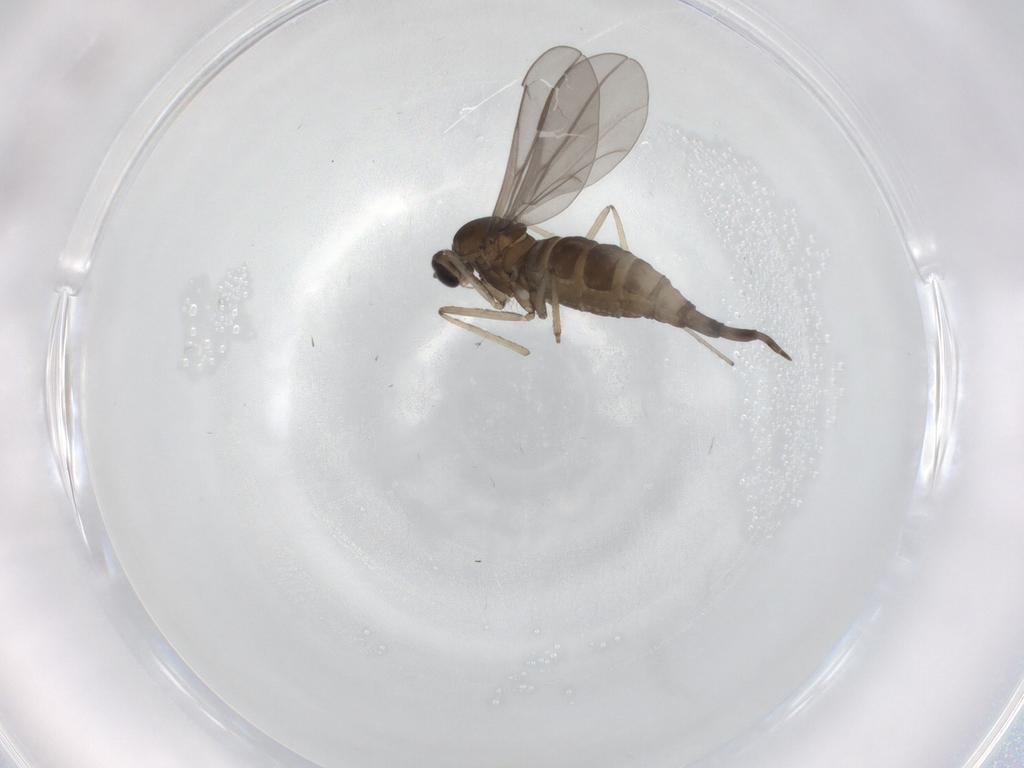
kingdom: Animalia
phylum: Arthropoda
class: Insecta
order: Diptera
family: Cecidomyiidae
